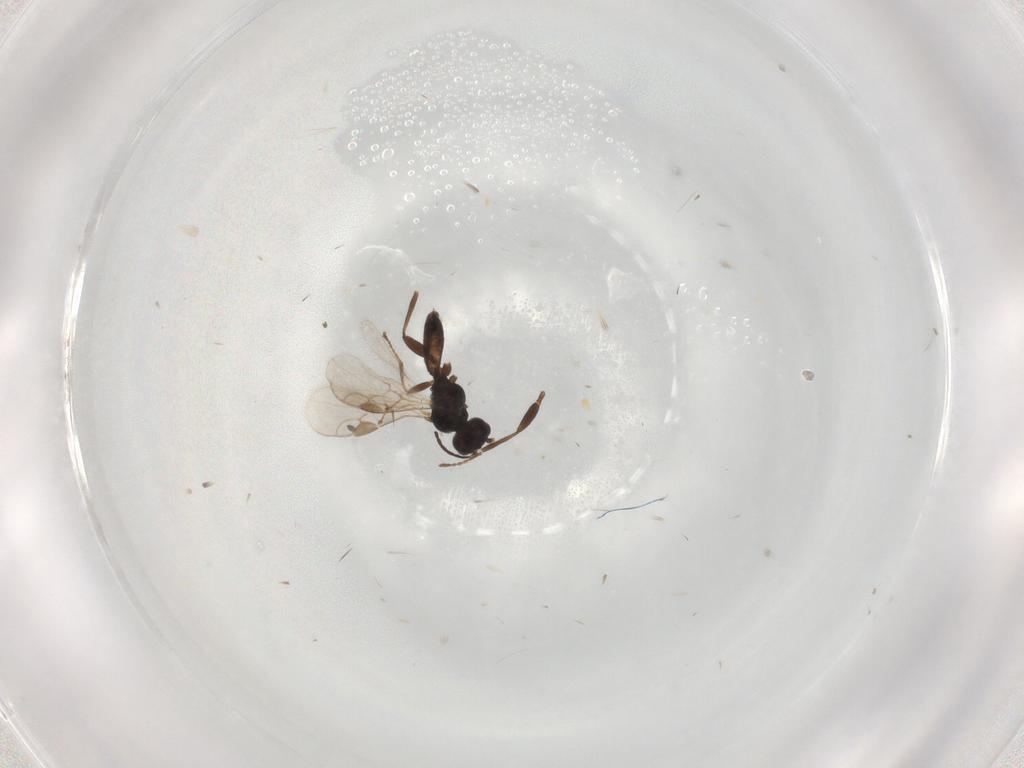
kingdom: Animalia
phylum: Arthropoda
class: Insecta
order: Hymenoptera
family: Braconidae
